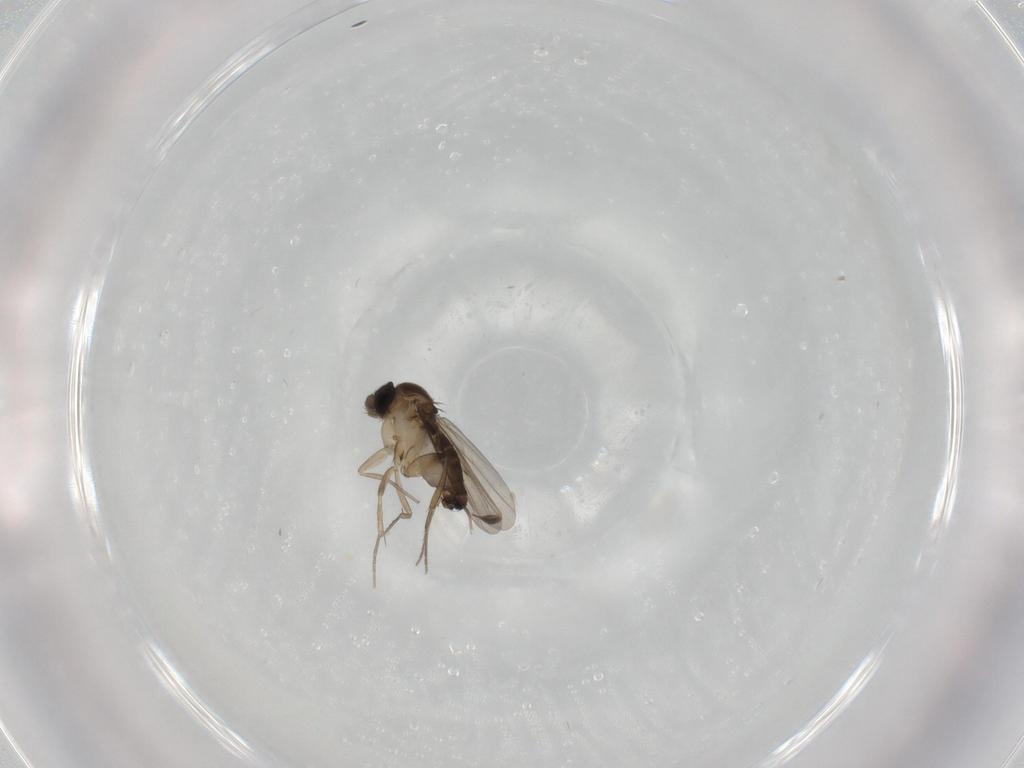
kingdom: Animalia
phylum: Arthropoda
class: Insecta
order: Diptera
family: Sciaridae
